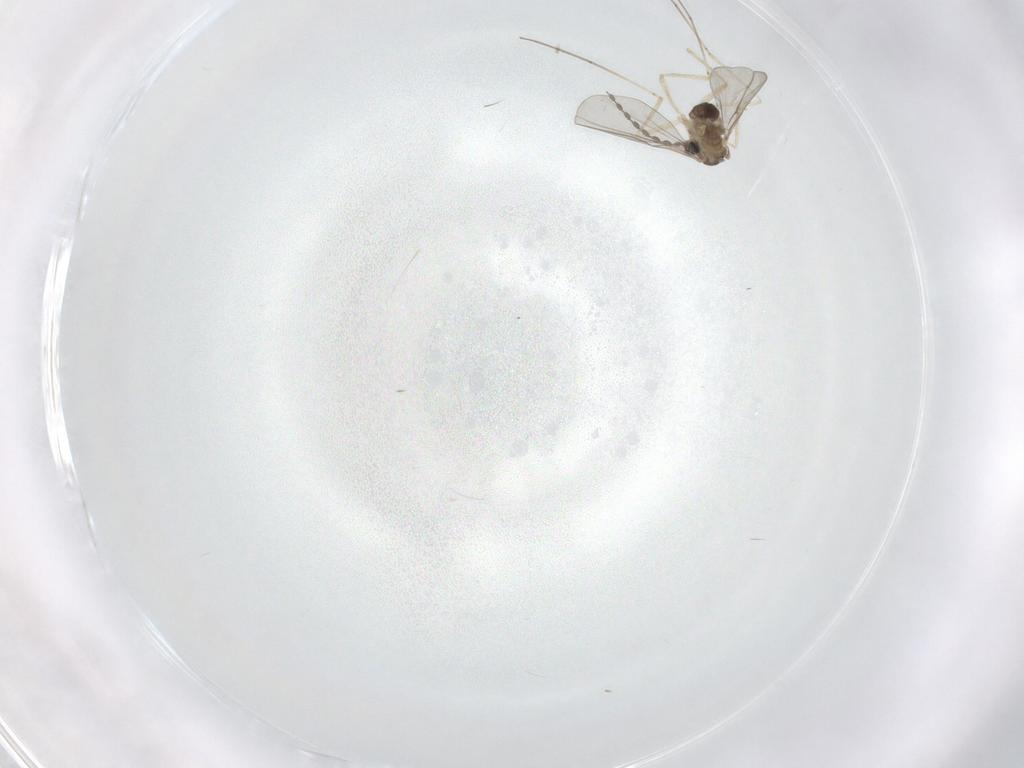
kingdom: Animalia
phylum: Arthropoda
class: Insecta
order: Diptera
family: Cecidomyiidae
